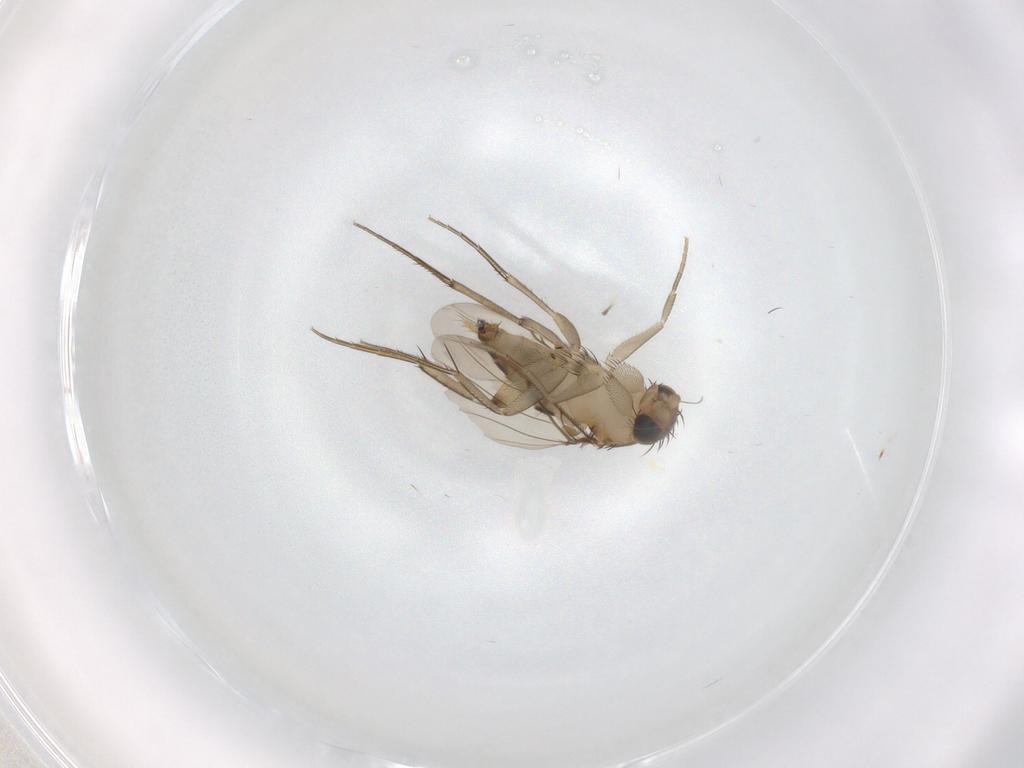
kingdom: Animalia
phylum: Arthropoda
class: Insecta
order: Diptera
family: Phoridae
